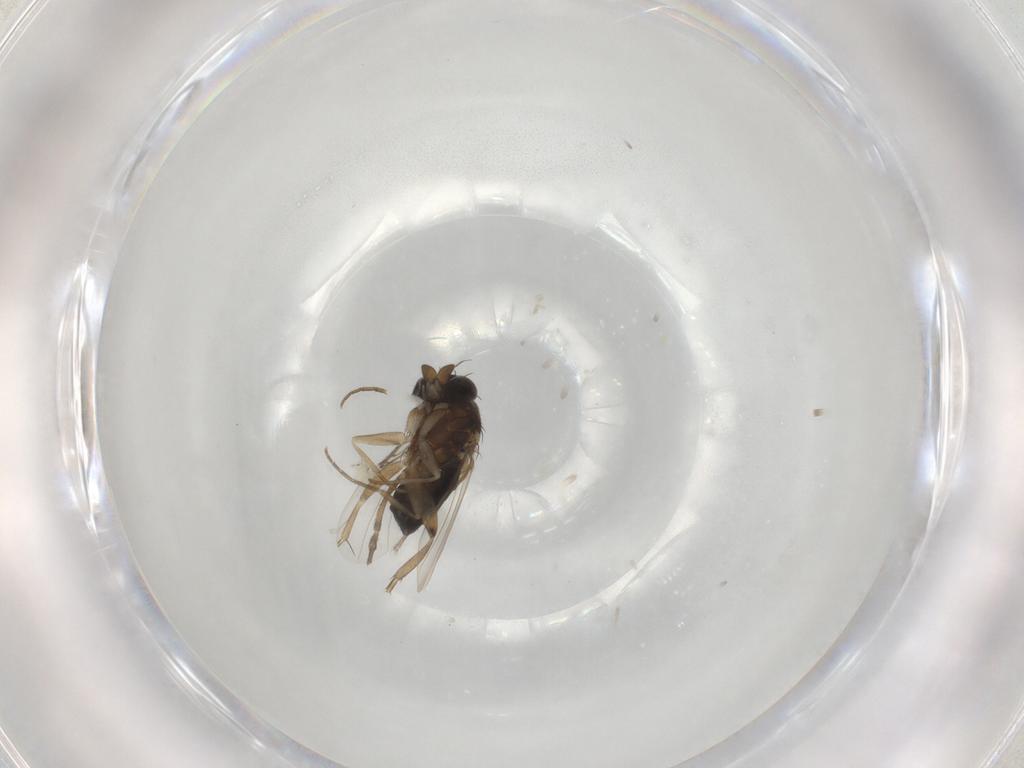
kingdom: Animalia
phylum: Arthropoda
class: Insecta
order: Diptera
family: Phoridae
